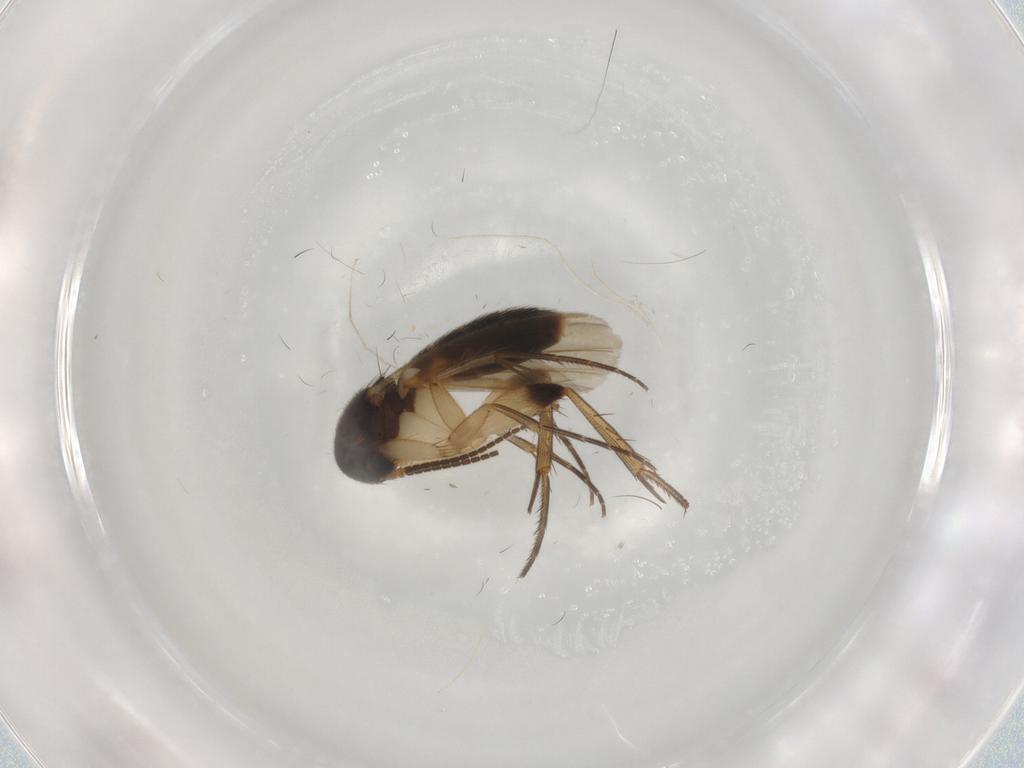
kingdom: Animalia
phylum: Arthropoda
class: Insecta
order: Diptera
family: Chironomidae
